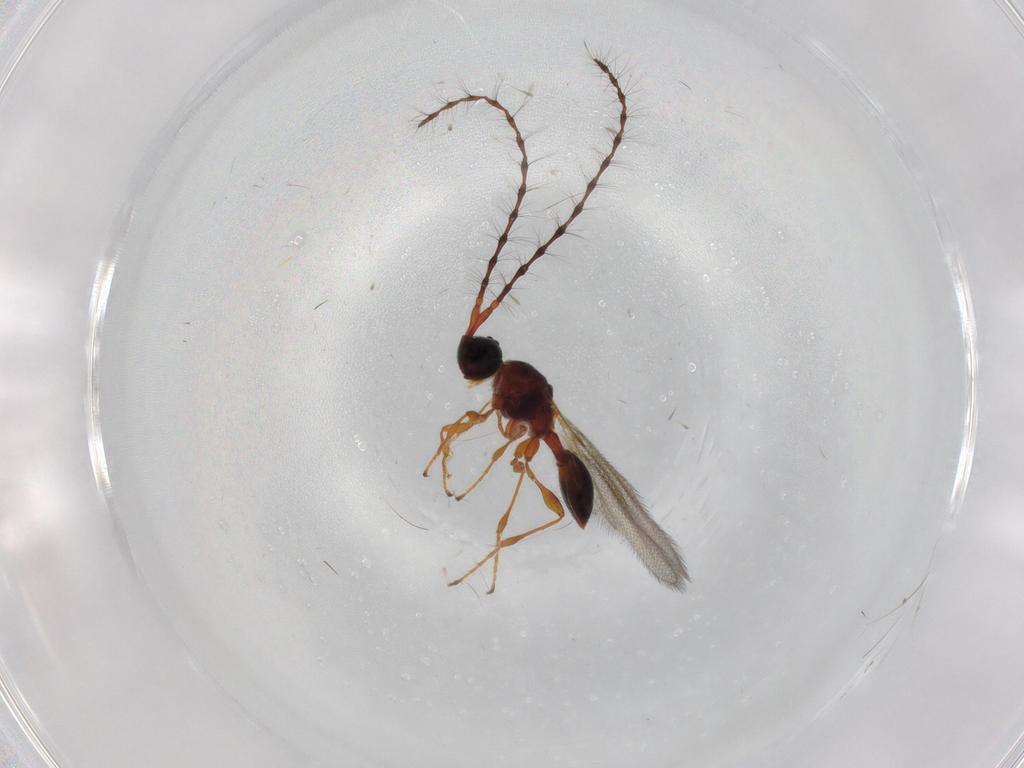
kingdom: Animalia
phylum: Arthropoda
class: Insecta
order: Hymenoptera
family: Diapriidae
